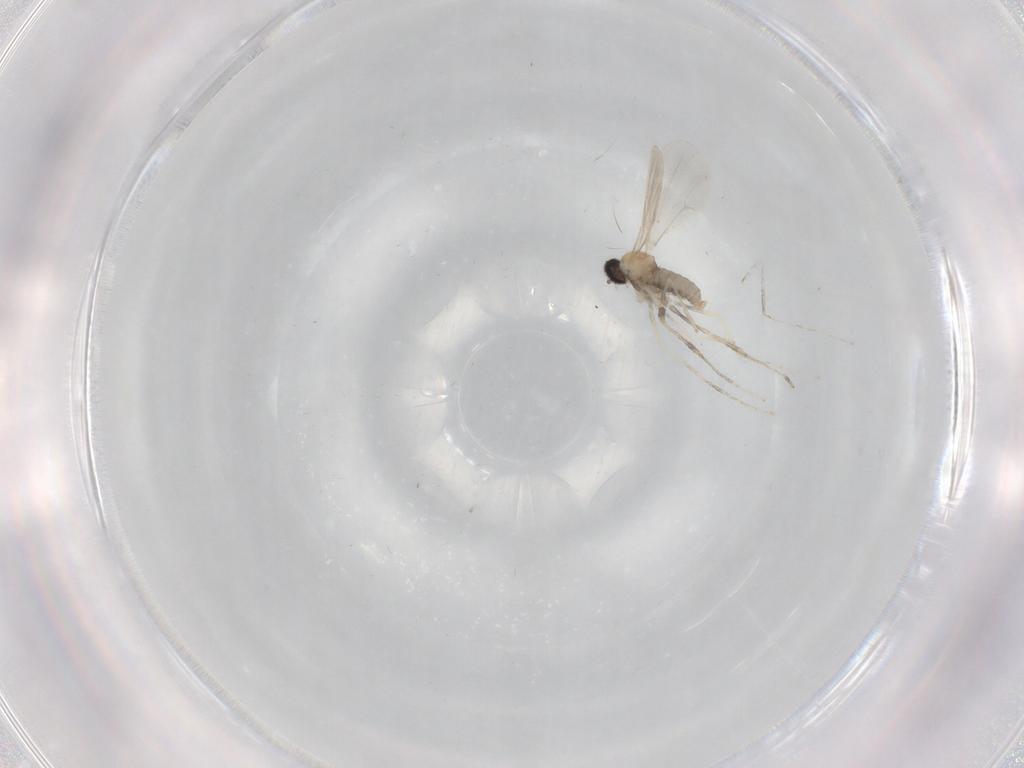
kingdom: Animalia
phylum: Arthropoda
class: Insecta
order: Diptera
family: Cecidomyiidae
